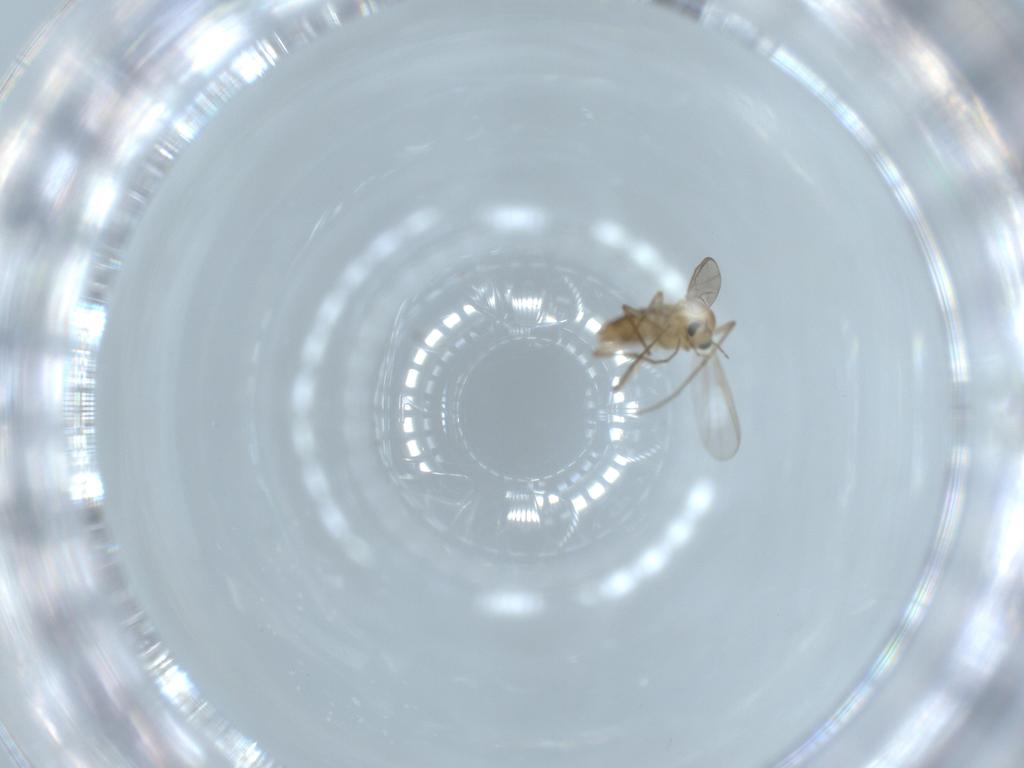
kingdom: Animalia
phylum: Arthropoda
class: Insecta
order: Diptera
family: Chironomidae
